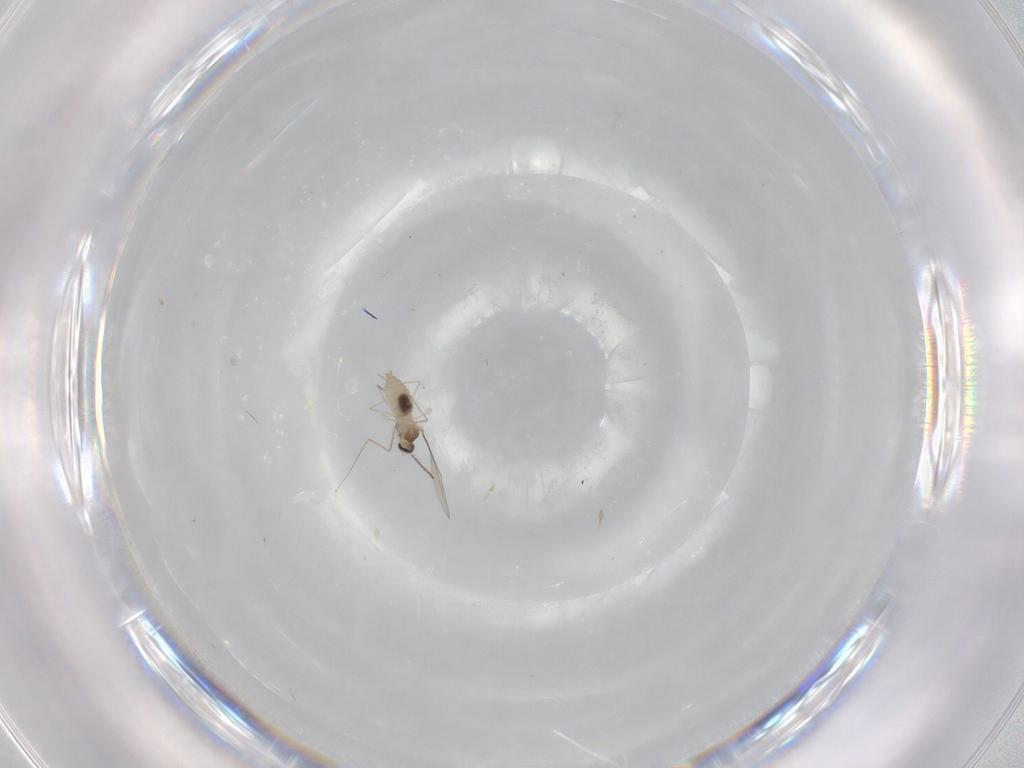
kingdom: Animalia
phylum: Arthropoda
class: Insecta
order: Diptera
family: Cecidomyiidae
